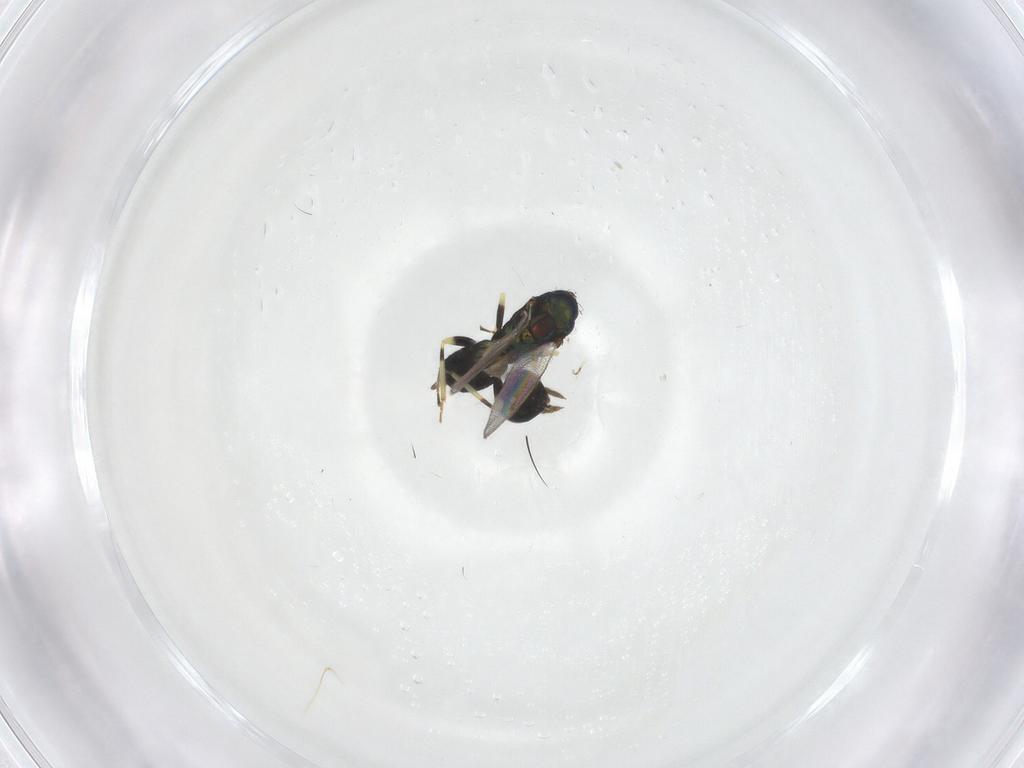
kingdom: Animalia
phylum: Arthropoda
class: Insecta
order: Hymenoptera
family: Eulophidae
